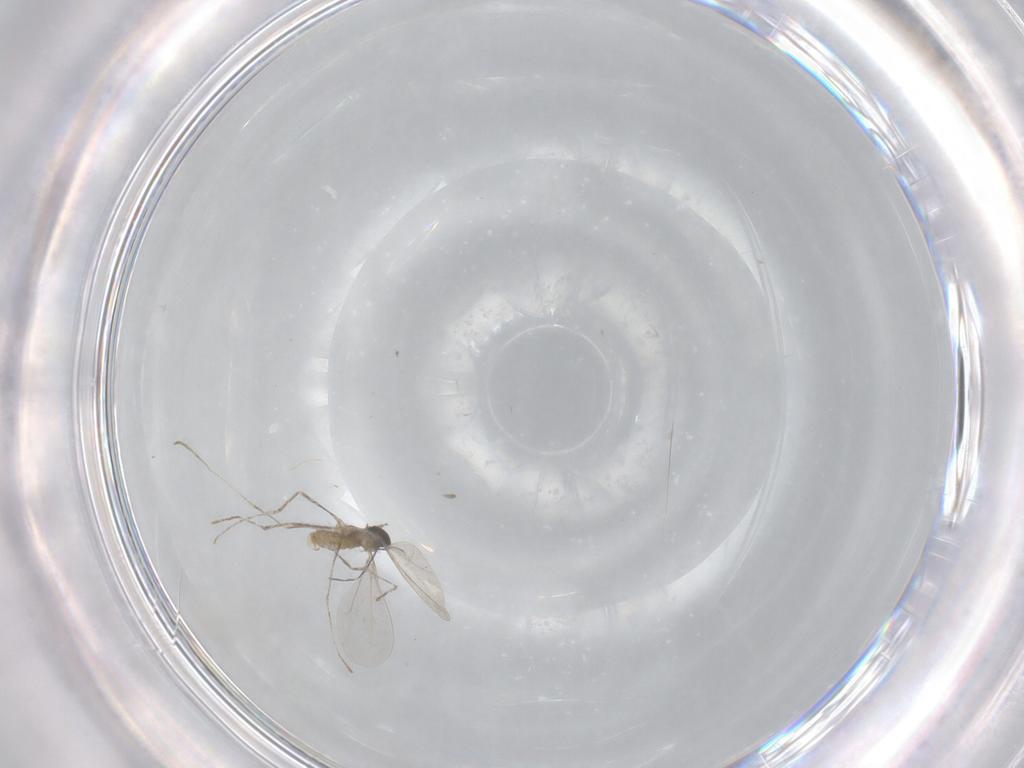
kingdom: Animalia
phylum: Arthropoda
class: Insecta
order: Diptera
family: Cecidomyiidae
